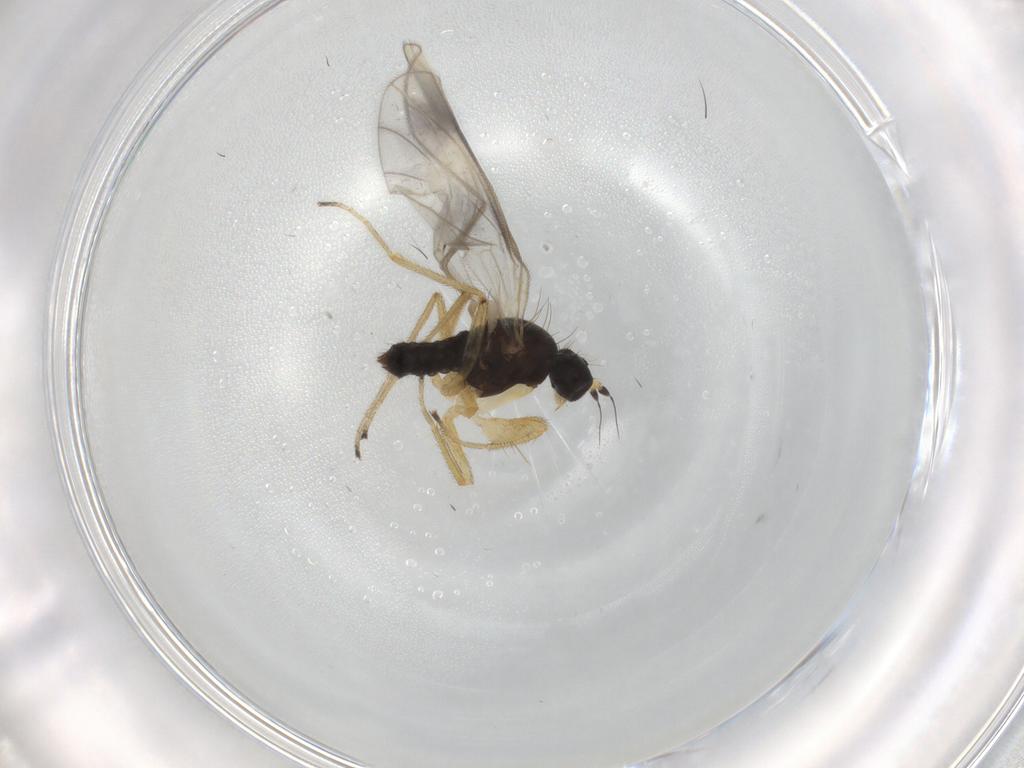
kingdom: Animalia
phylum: Arthropoda
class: Insecta
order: Diptera
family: Empididae
